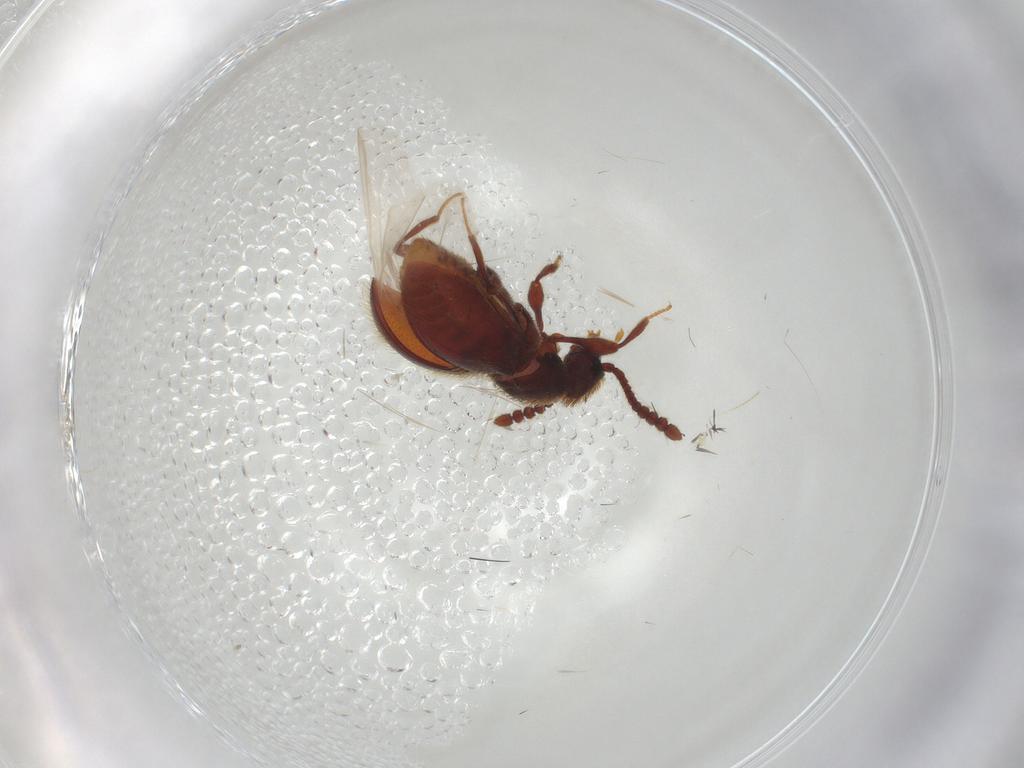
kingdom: Animalia
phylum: Arthropoda
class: Insecta
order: Coleoptera
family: Staphylinidae
